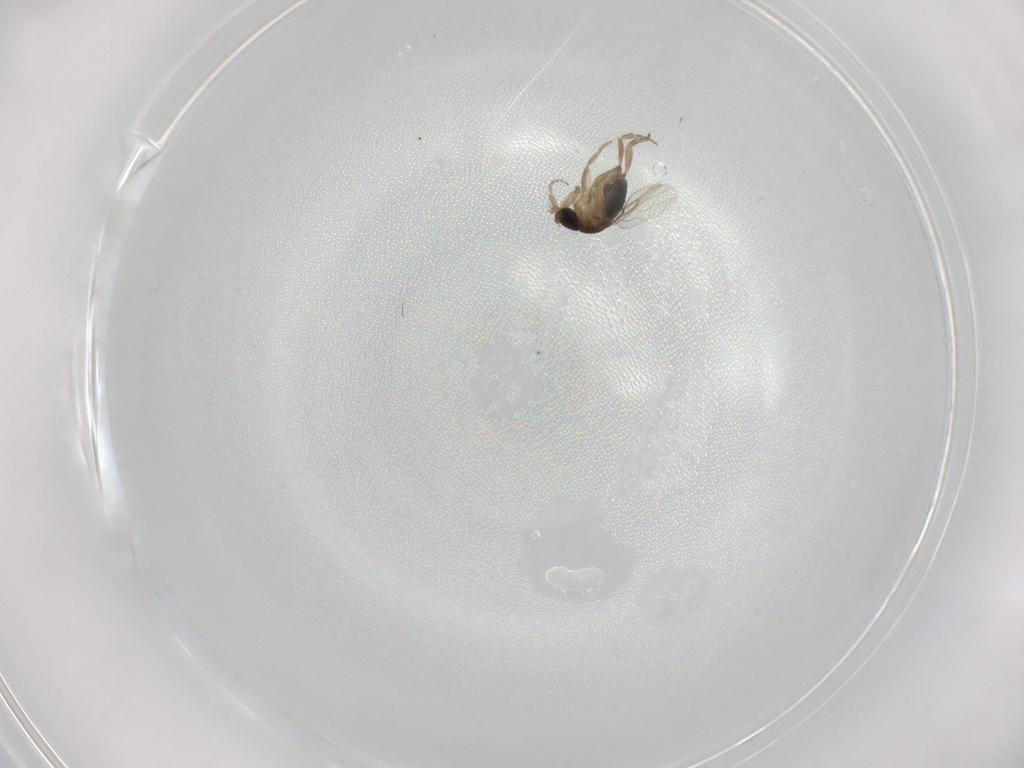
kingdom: Animalia
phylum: Arthropoda
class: Insecta
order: Diptera
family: Phoridae
